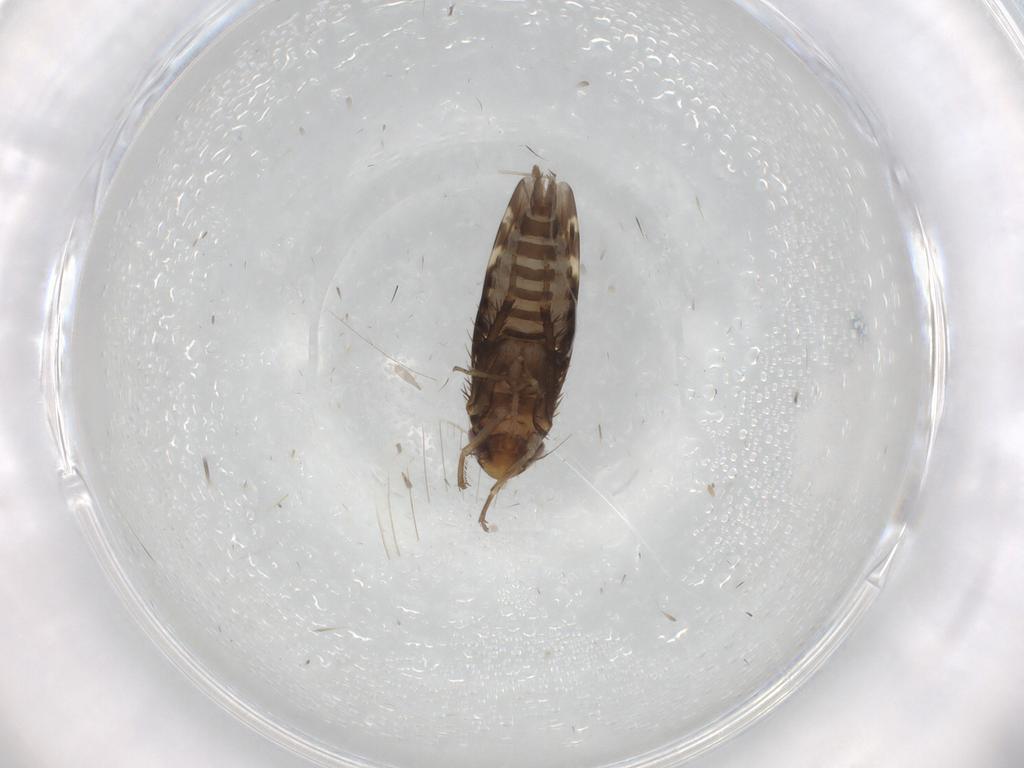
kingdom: Animalia
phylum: Arthropoda
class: Insecta
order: Hemiptera
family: Cicadellidae
